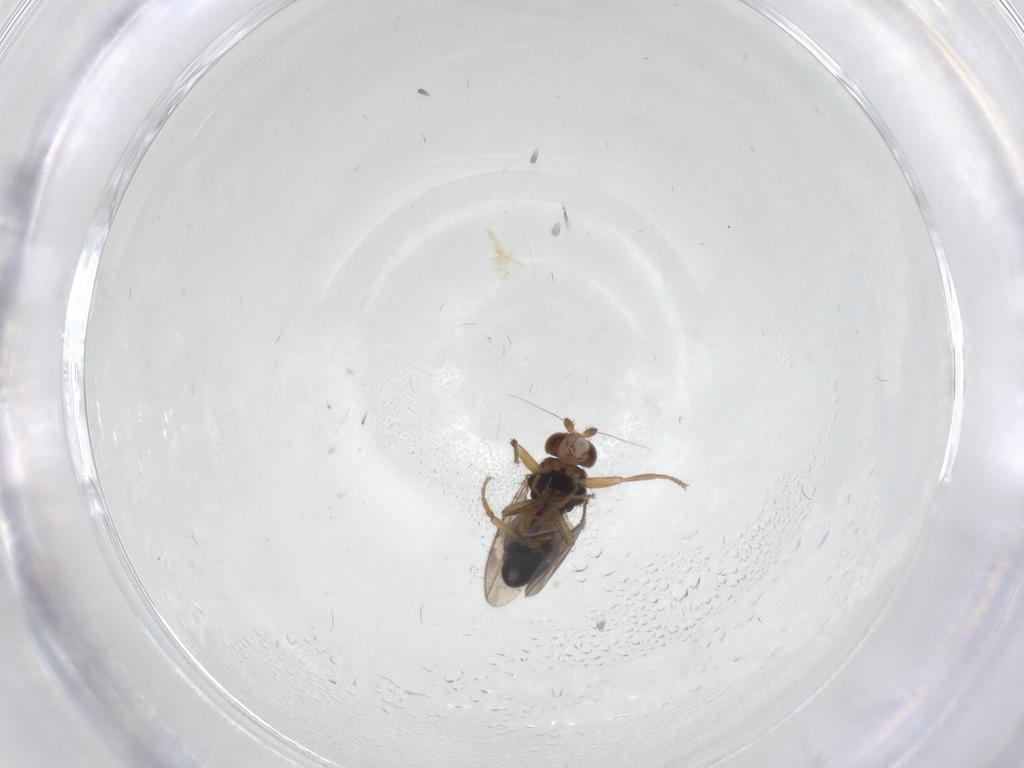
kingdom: Animalia
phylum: Arthropoda
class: Insecta
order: Diptera
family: Sphaeroceridae
